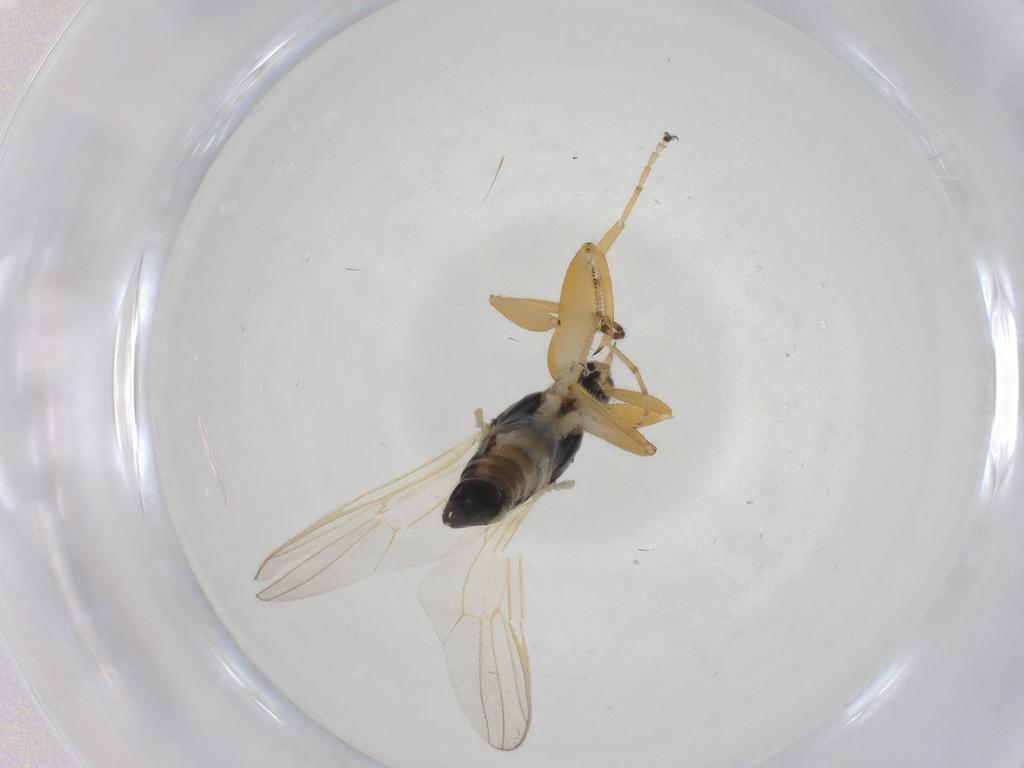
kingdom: Animalia
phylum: Arthropoda
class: Insecta
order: Diptera
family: Hybotidae
